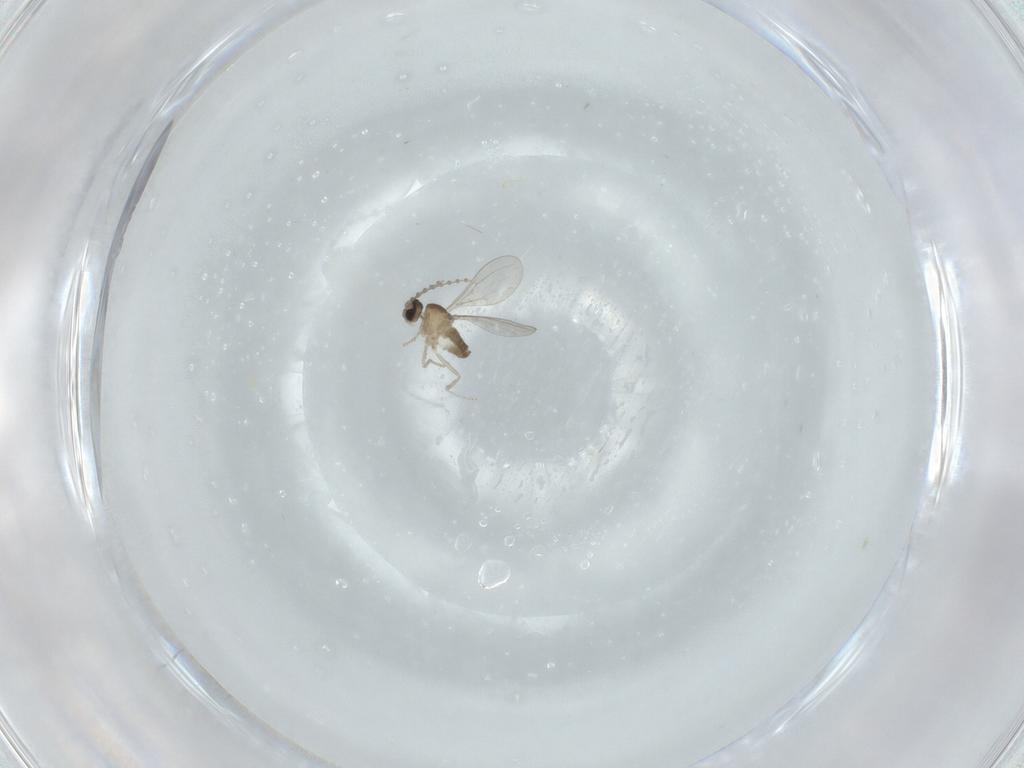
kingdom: Animalia
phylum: Arthropoda
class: Insecta
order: Diptera
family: Cecidomyiidae
